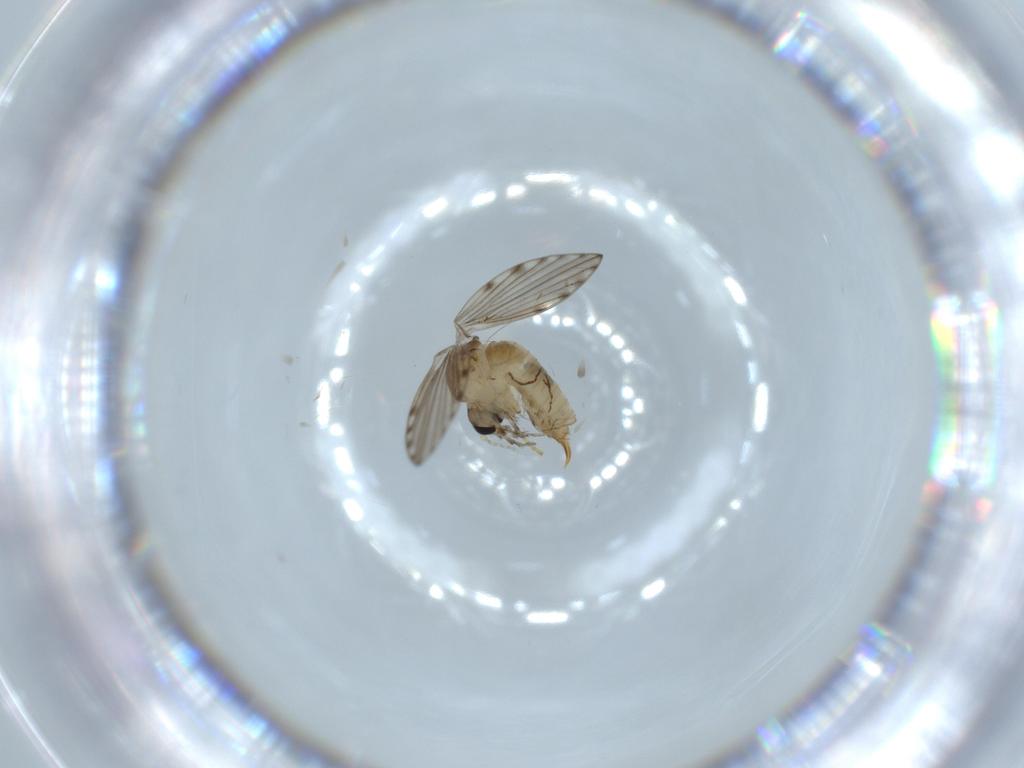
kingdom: Animalia
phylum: Arthropoda
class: Insecta
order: Diptera
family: Psychodidae
